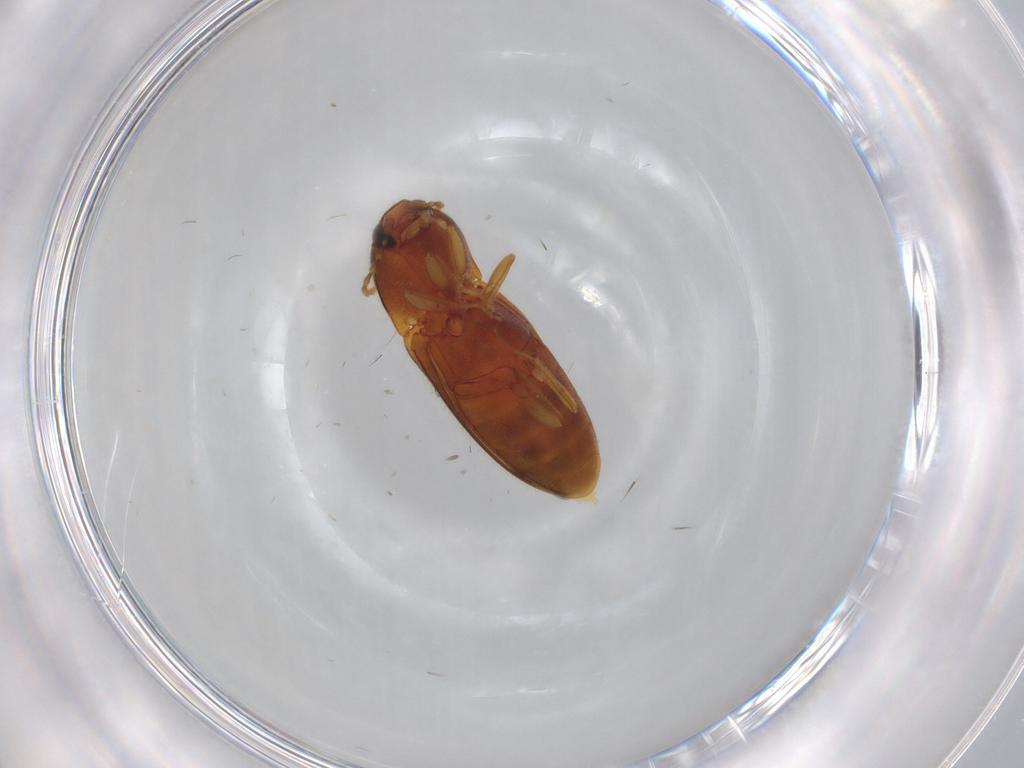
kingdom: Animalia
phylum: Arthropoda
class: Insecta
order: Coleoptera
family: Elateridae
